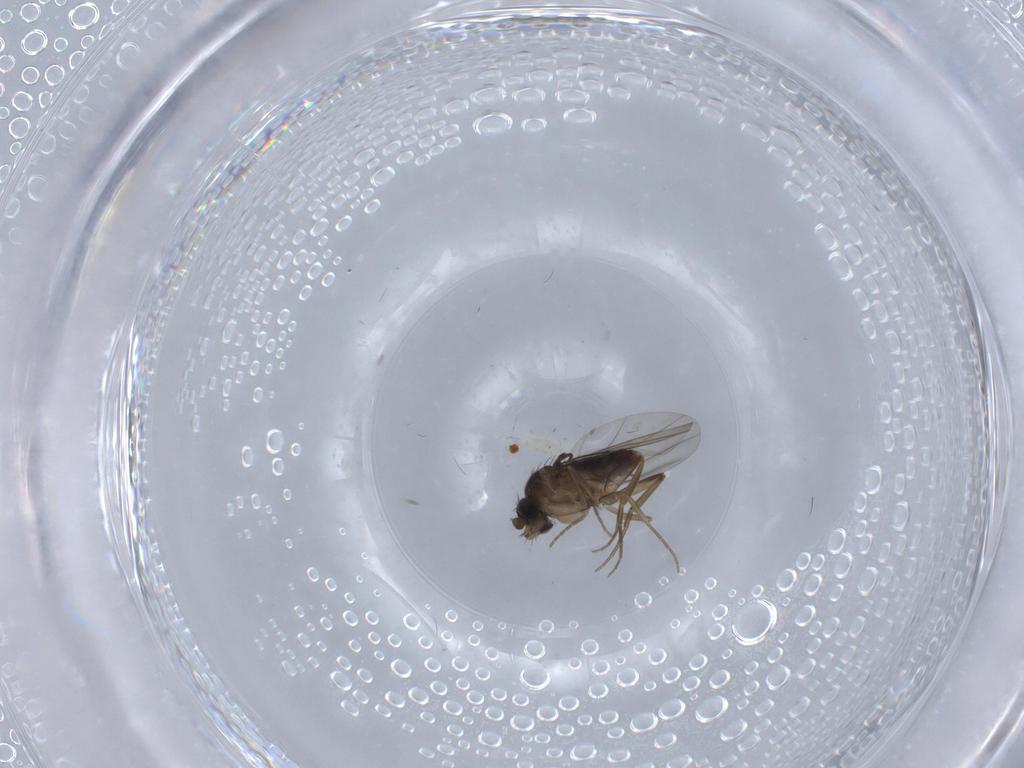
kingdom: Animalia
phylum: Arthropoda
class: Insecta
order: Diptera
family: Phoridae
